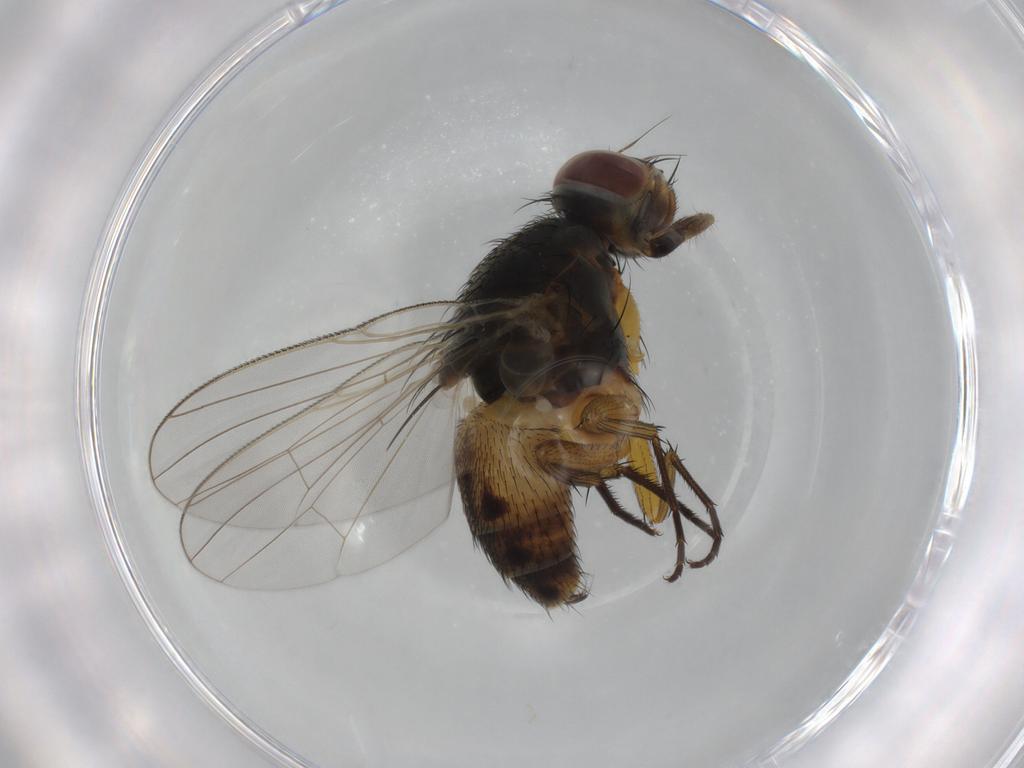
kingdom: Animalia
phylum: Arthropoda
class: Insecta
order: Diptera
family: Muscidae
